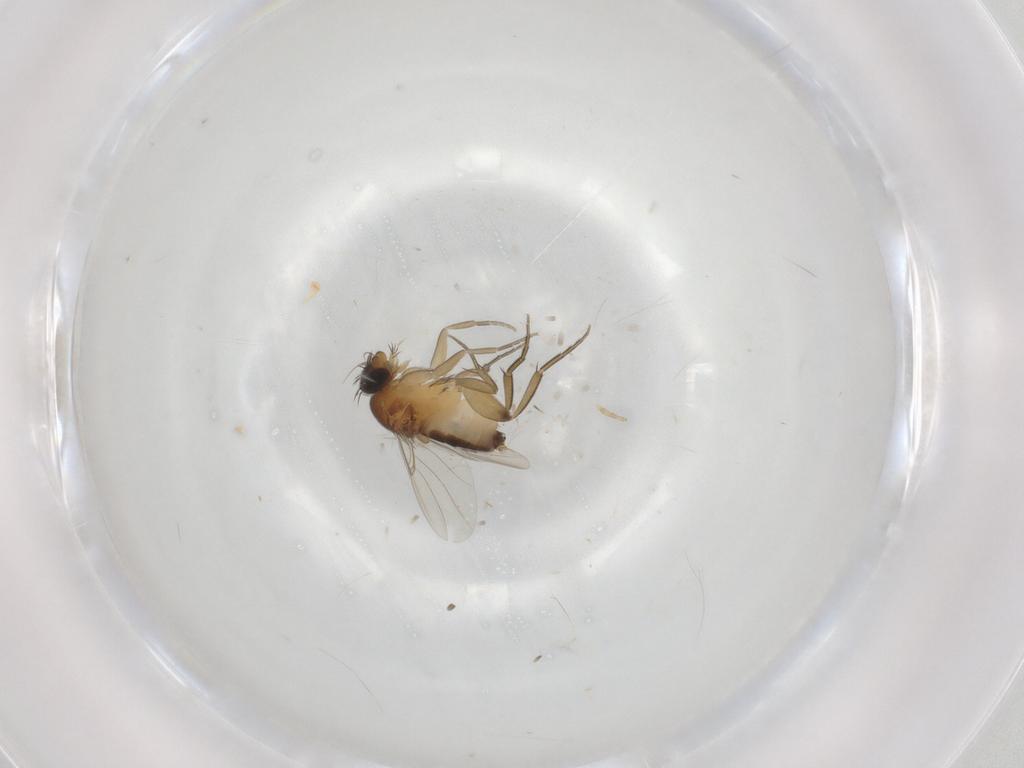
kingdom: Animalia
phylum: Arthropoda
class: Insecta
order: Diptera
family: Phoridae
